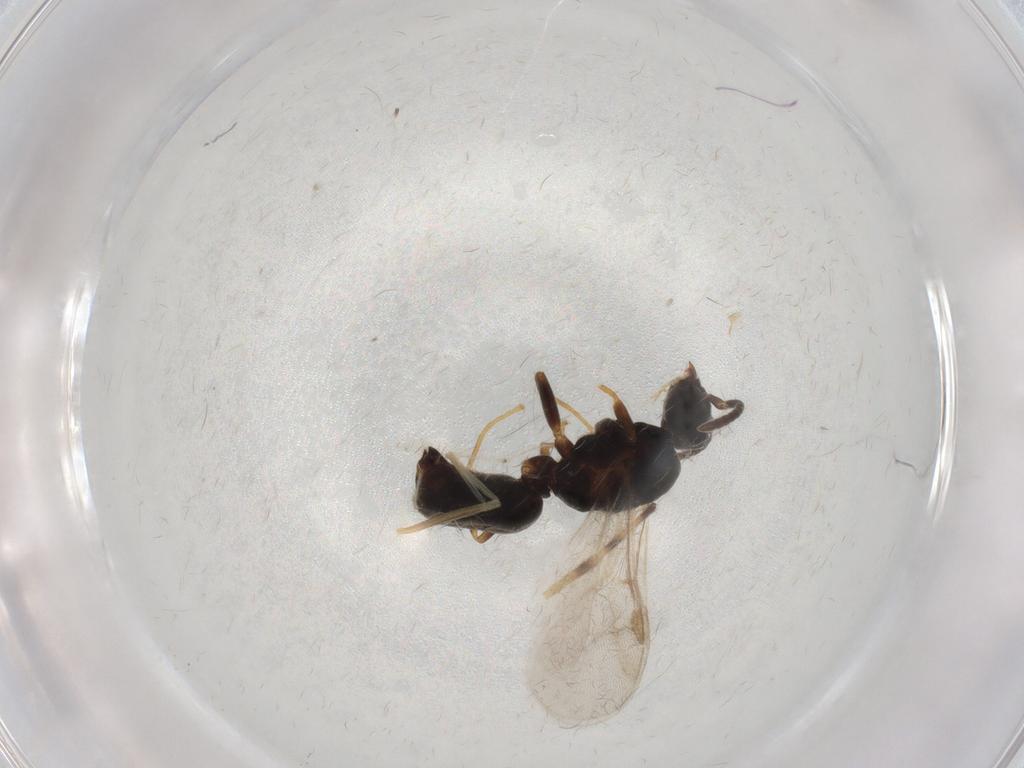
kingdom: Animalia
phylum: Arthropoda
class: Insecta
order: Hymenoptera
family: Formicidae
